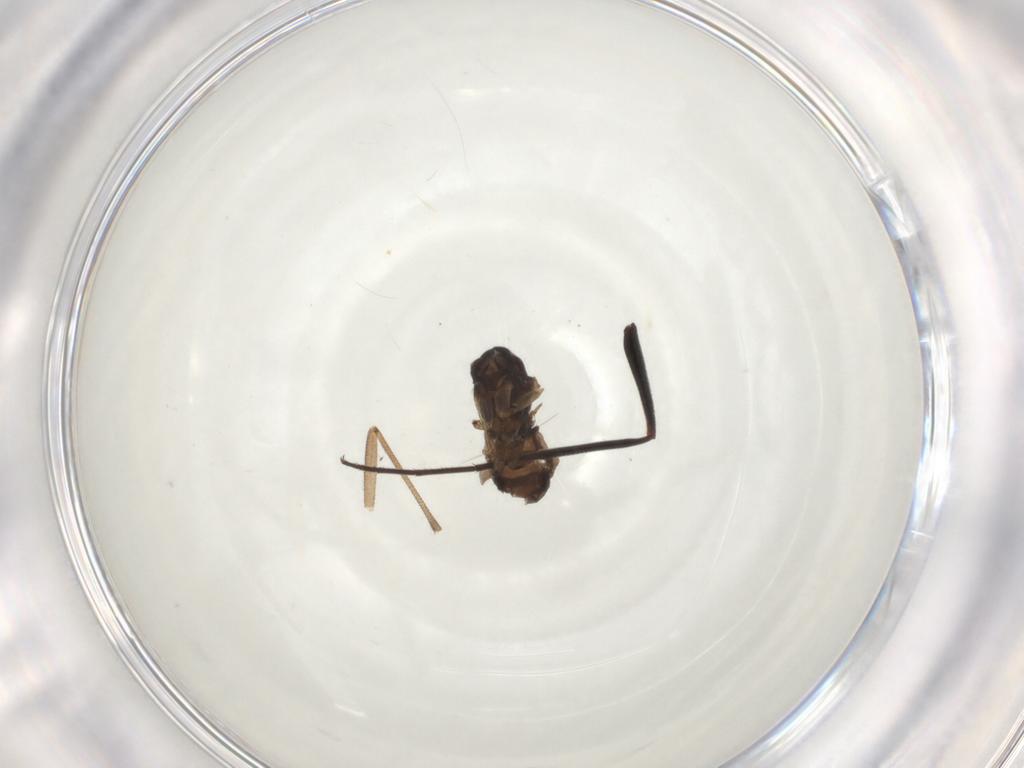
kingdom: Animalia
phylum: Arthropoda
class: Insecta
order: Diptera
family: Sciaridae
